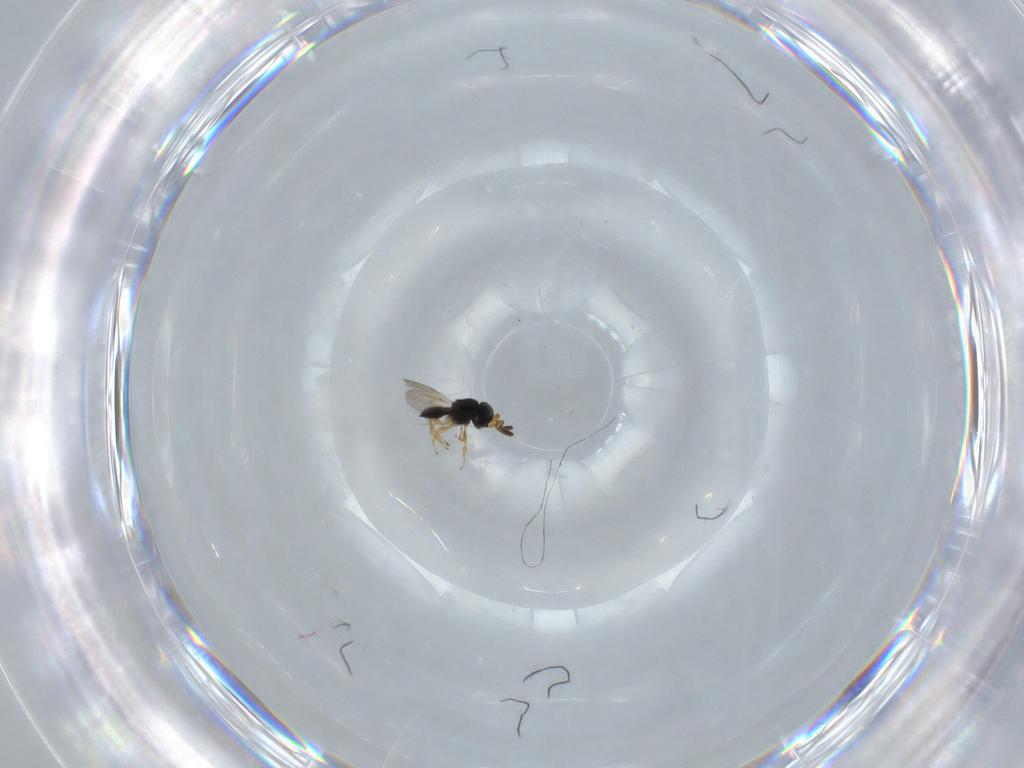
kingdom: Animalia
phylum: Arthropoda
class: Insecta
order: Hymenoptera
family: Scelionidae
